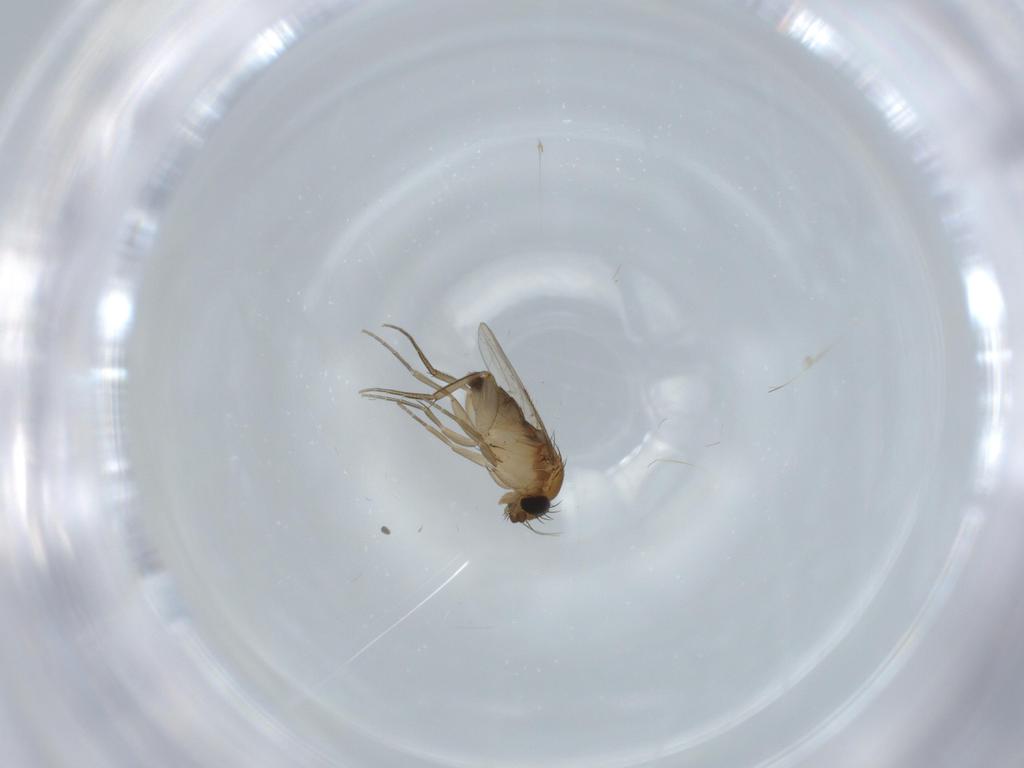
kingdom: Animalia
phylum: Arthropoda
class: Insecta
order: Diptera
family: Phoridae
